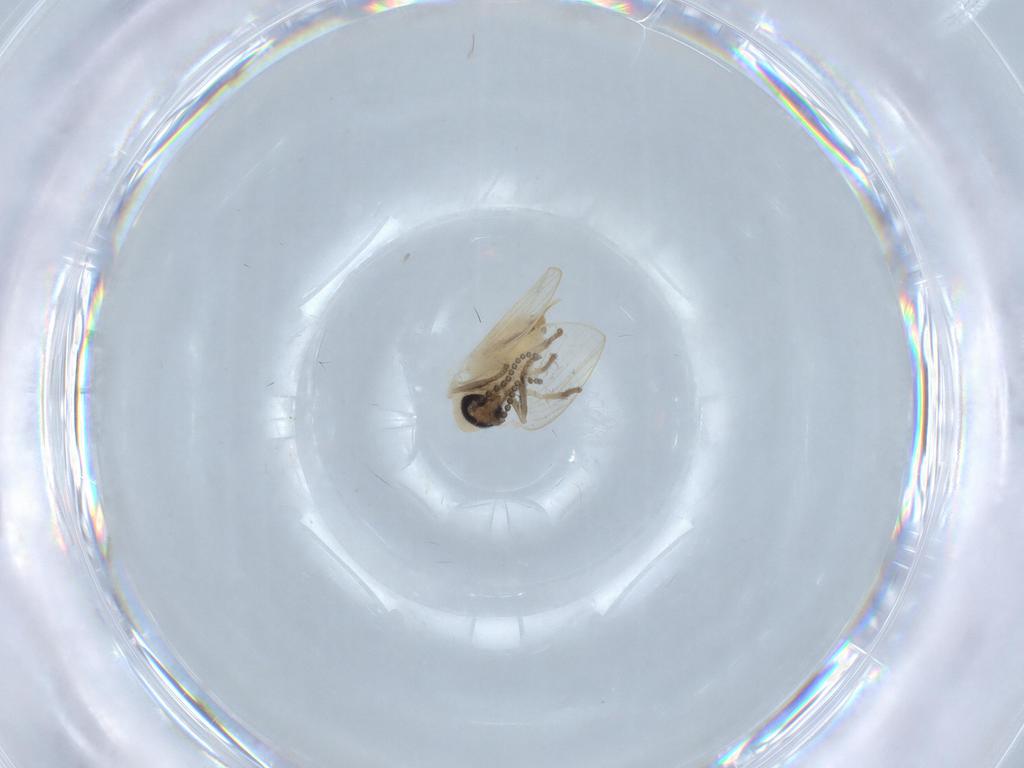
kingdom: Animalia
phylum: Arthropoda
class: Insecta
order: Diptera
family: Psychodidae
